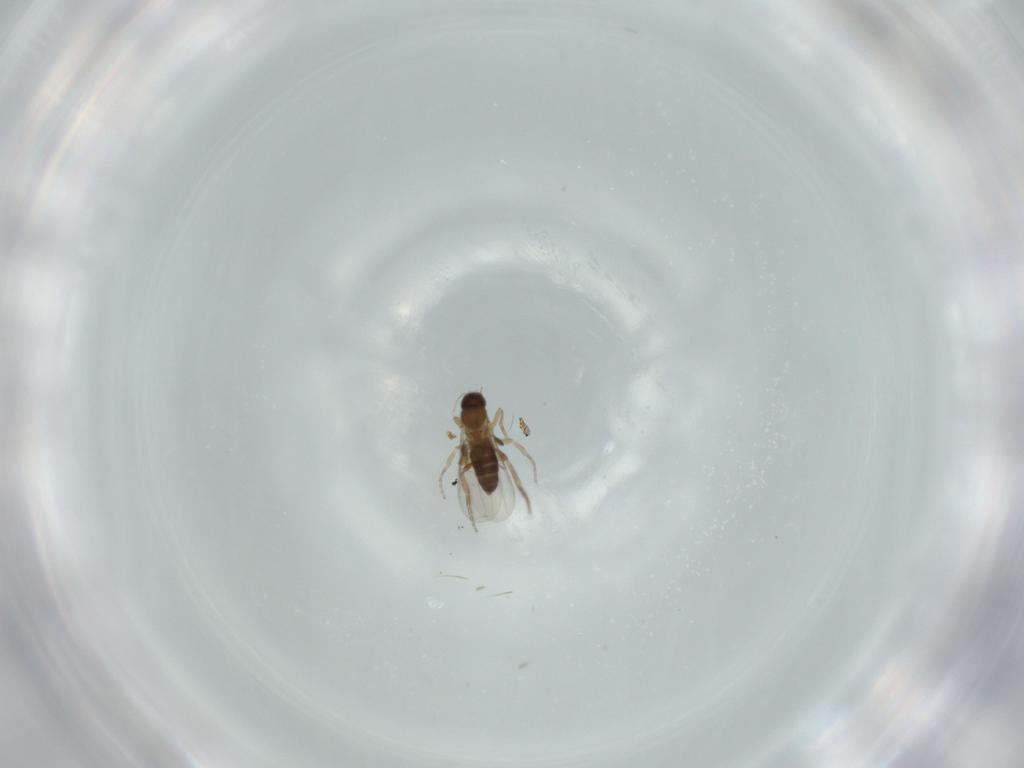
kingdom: Animalia
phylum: Arthropoda
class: Insecta
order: Diptera
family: Phoridae
